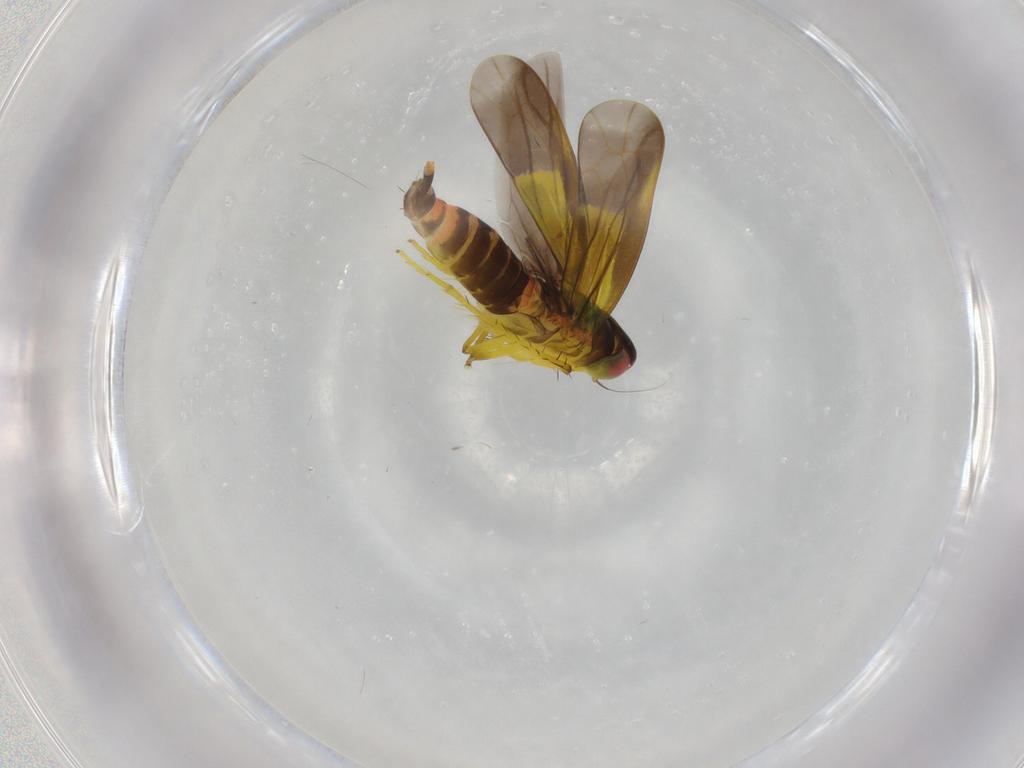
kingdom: Animalia
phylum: Arthropoda
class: Insecta
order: Hemiptera
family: Cicadellidae
